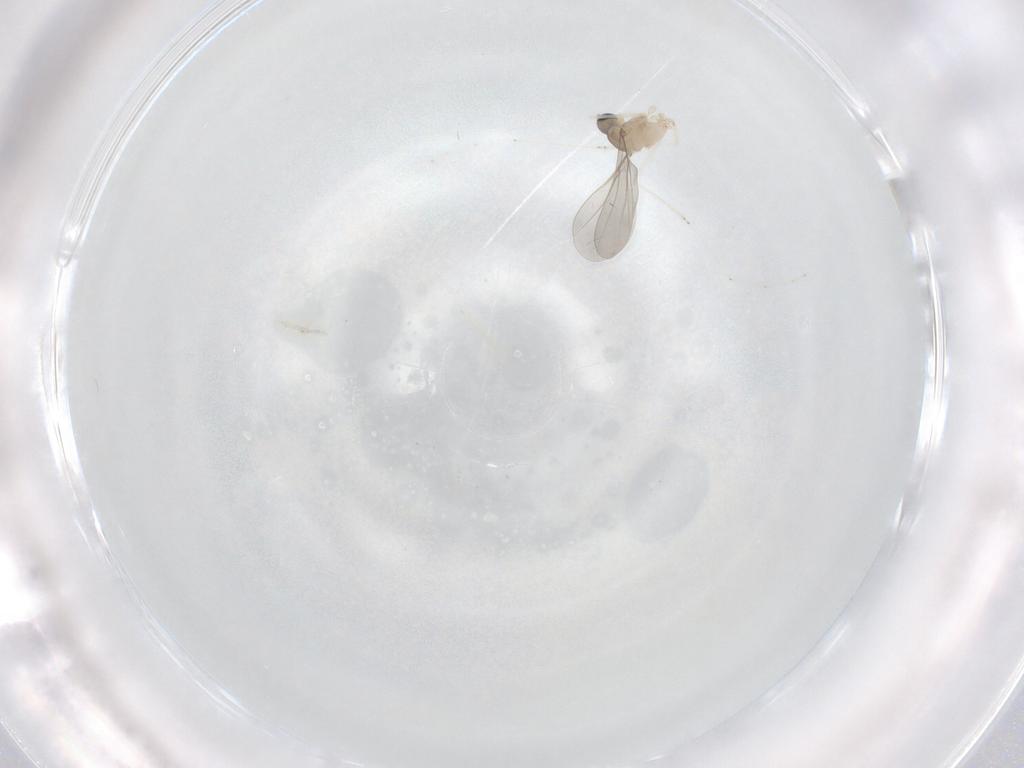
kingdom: Animalia
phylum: Arthropoda
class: Insecta
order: Diptera
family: Cecidomyiidae
